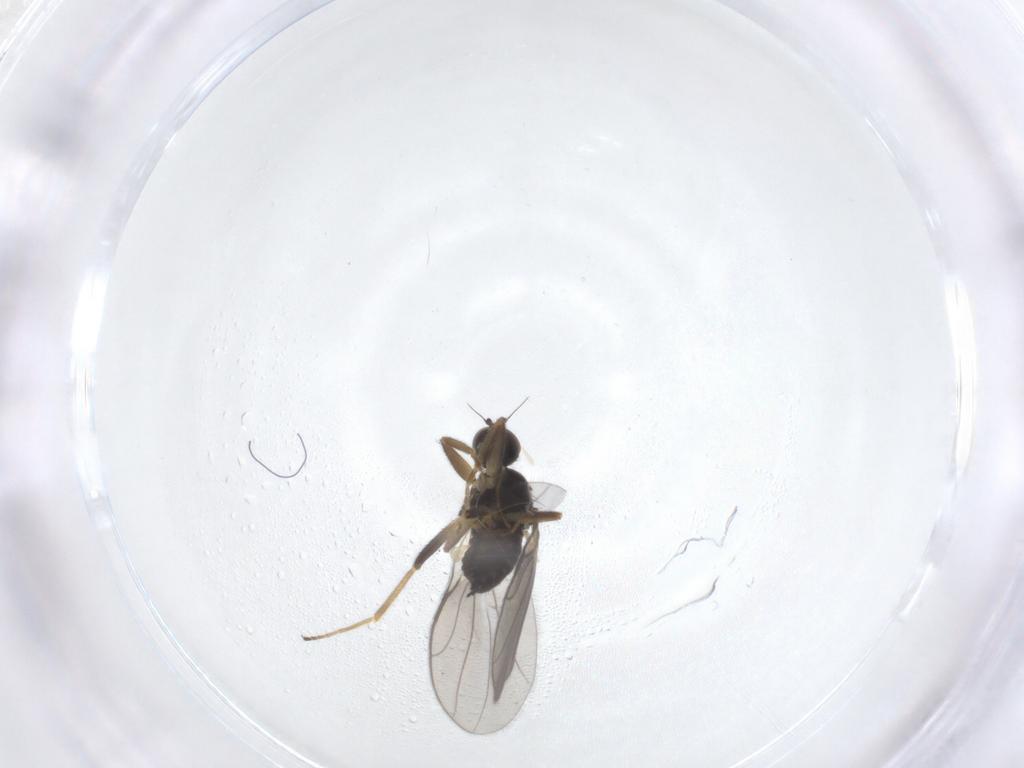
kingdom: Animalia
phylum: Arthropoda
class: Insecta
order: Diptera
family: Hybotidae
